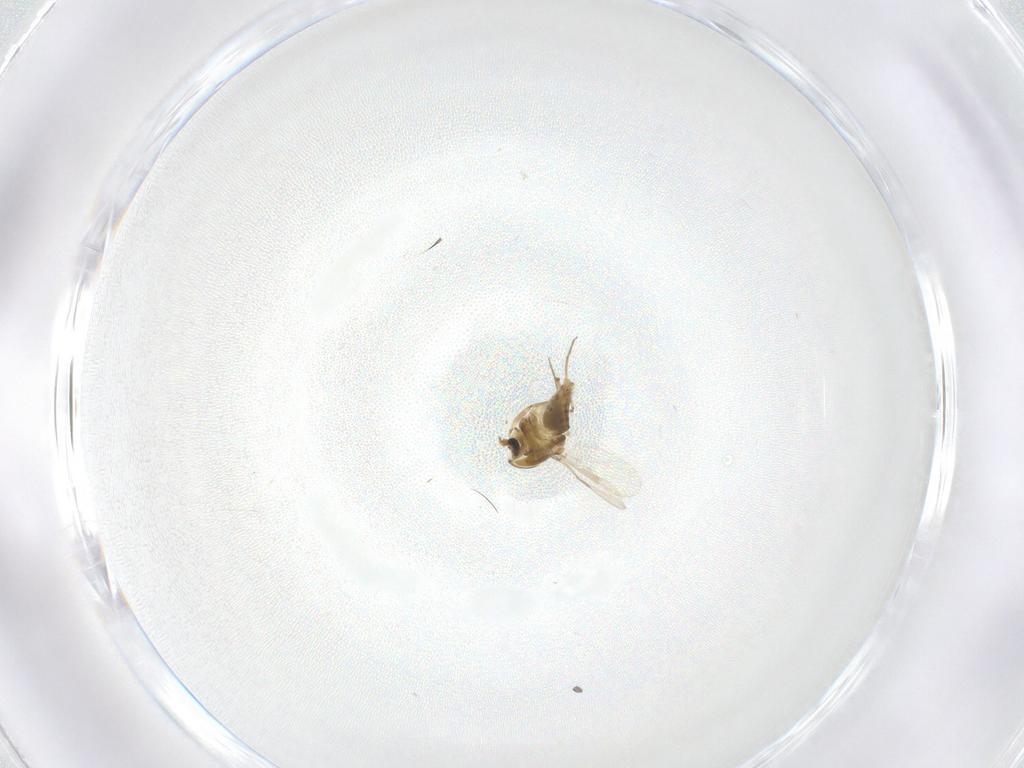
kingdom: Animalia
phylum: Arthropoda
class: Insecta
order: Diptera
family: Chironomidae
